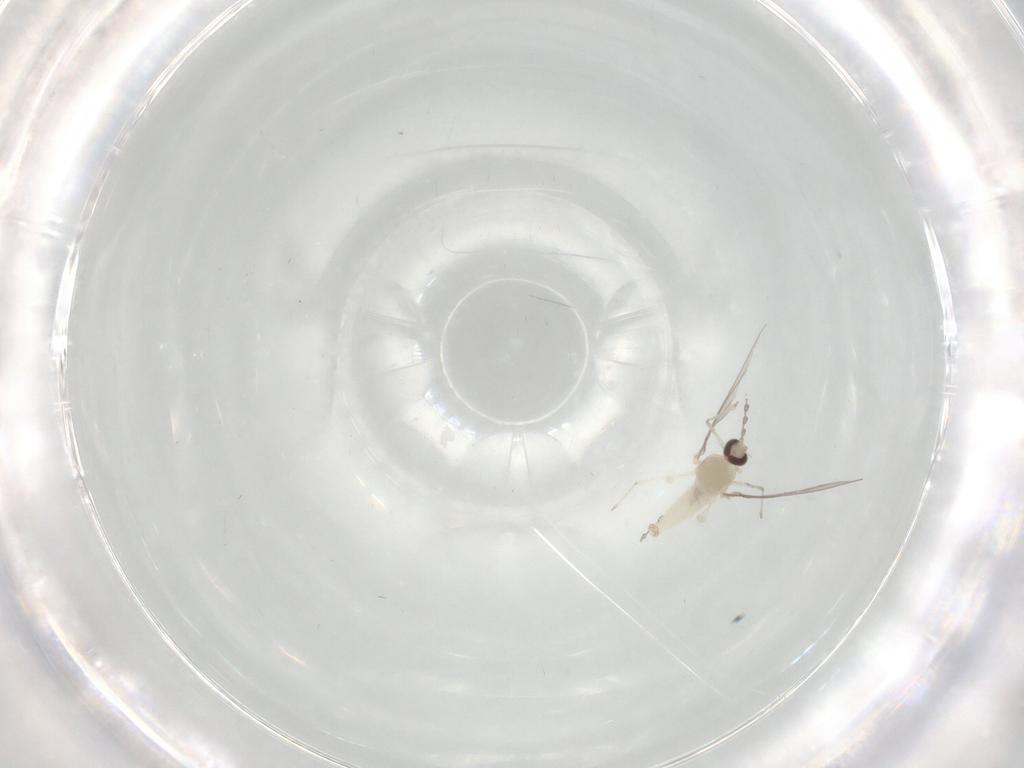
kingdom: Animalia
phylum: Arthropoda
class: Insecta
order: Diptera
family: Cecidomyiidae
